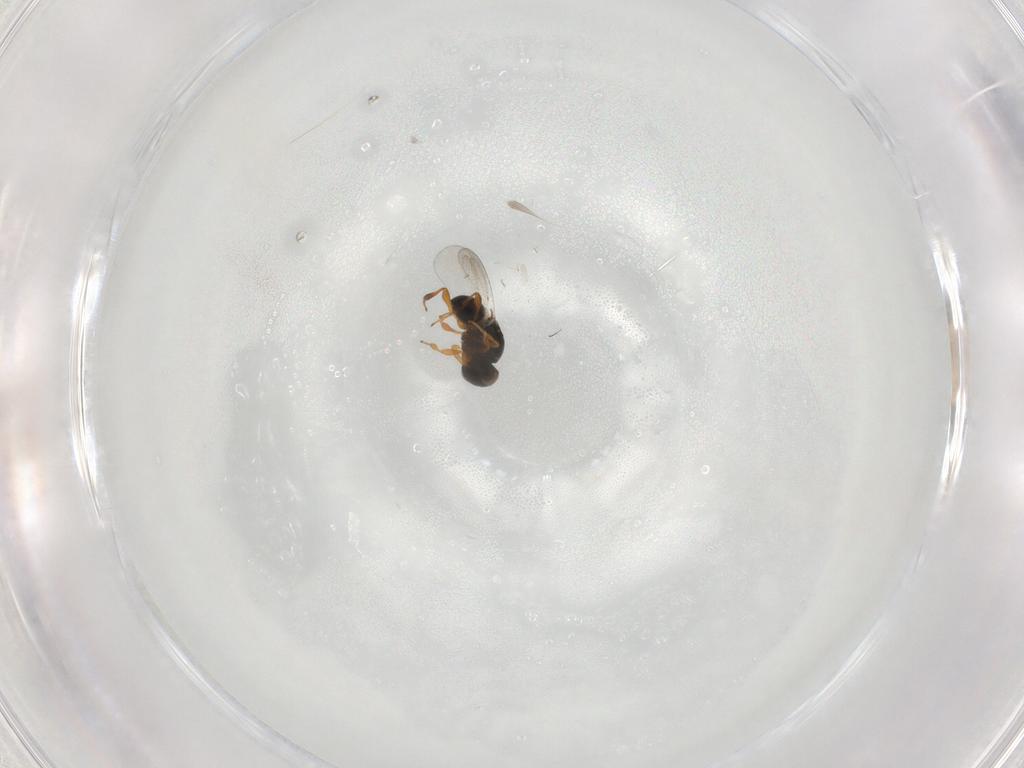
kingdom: Animalia
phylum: Arthropoda
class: Insecta
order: Hymenoptera
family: Platygastridae
